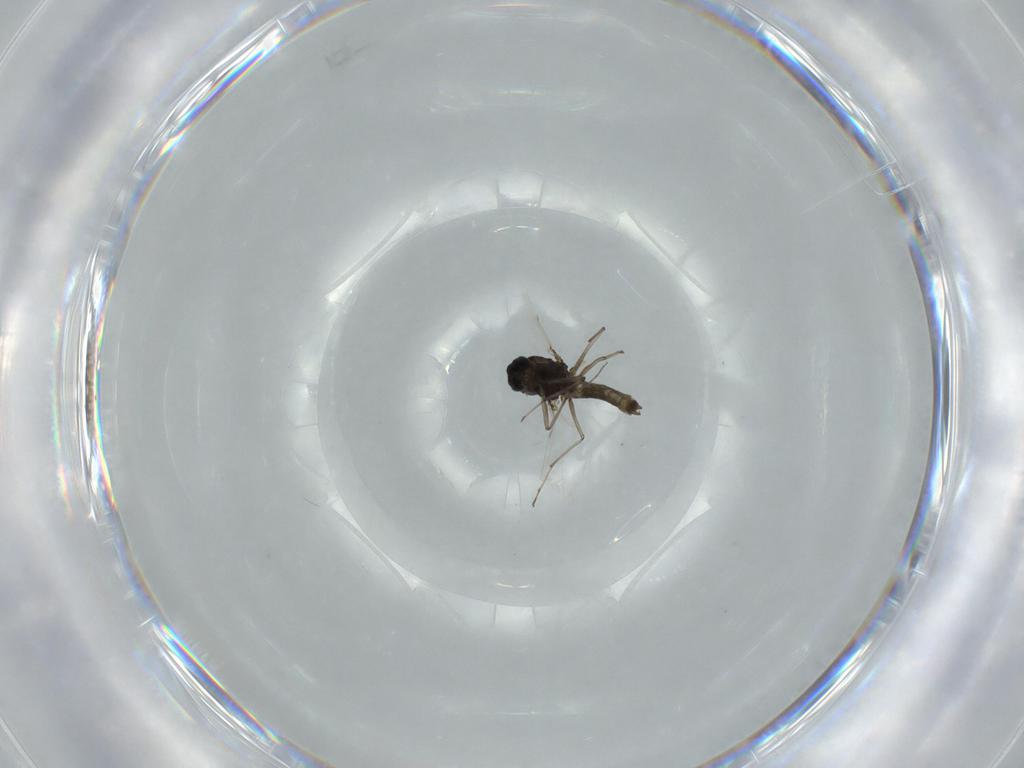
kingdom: Animalia
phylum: Arthropoda
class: Insecta
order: Diptera
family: Chironomidae
